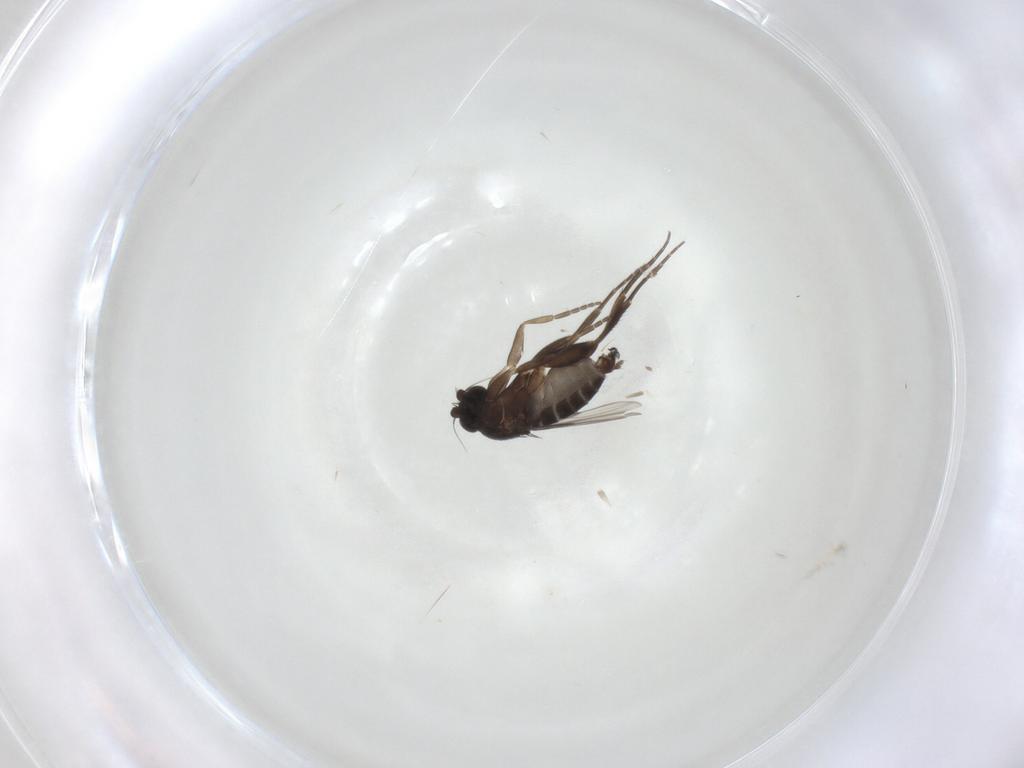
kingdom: Animalia
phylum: Arthropoda
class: Insecta
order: Diptera
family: Phoridae
